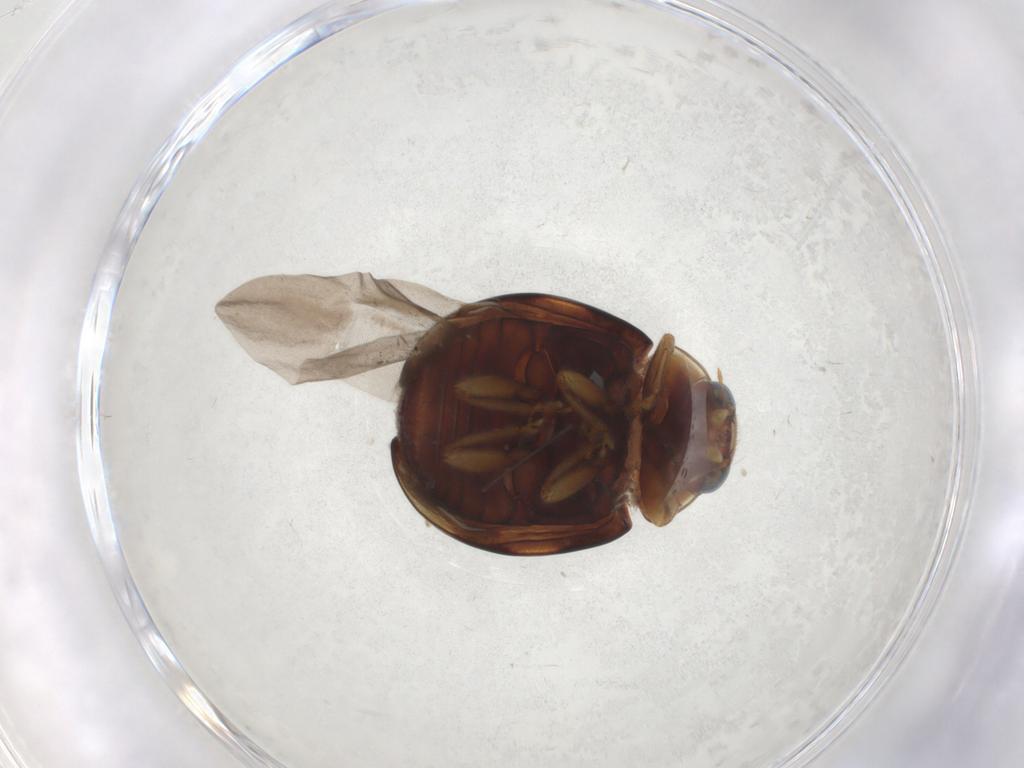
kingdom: Animalia
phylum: Arthropoda
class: Insecta
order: Coleoptera
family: Coccinellidae
